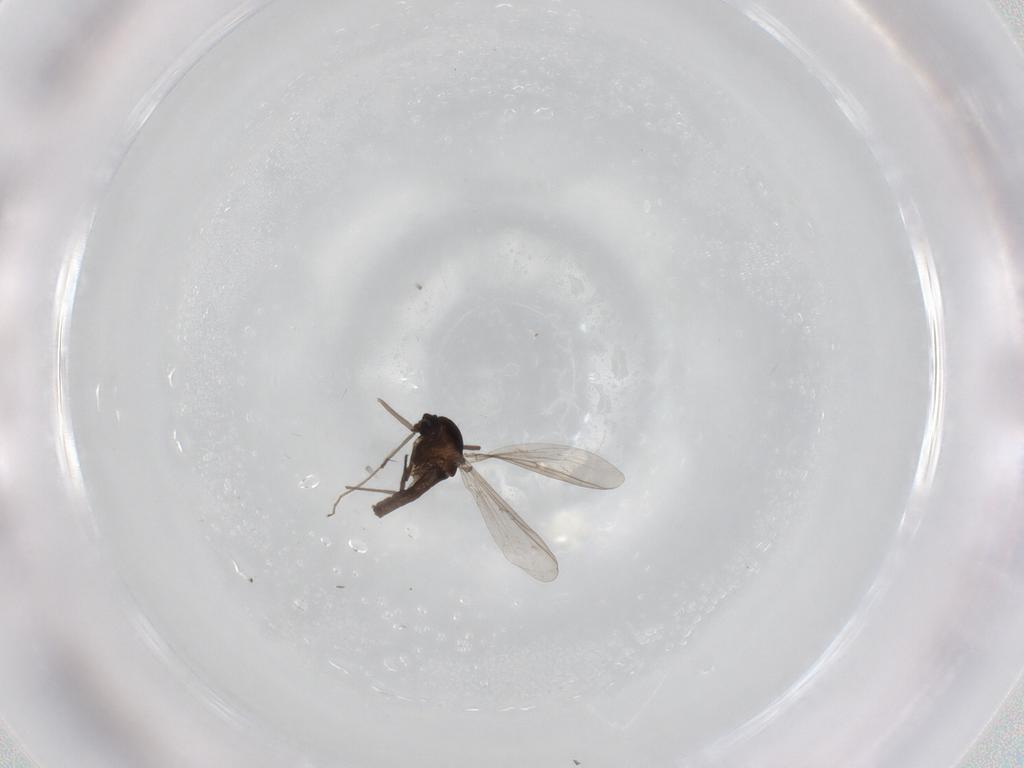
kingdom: Animalia
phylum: Arthropoda
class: Insecta
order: Diptera
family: Chironomidae
